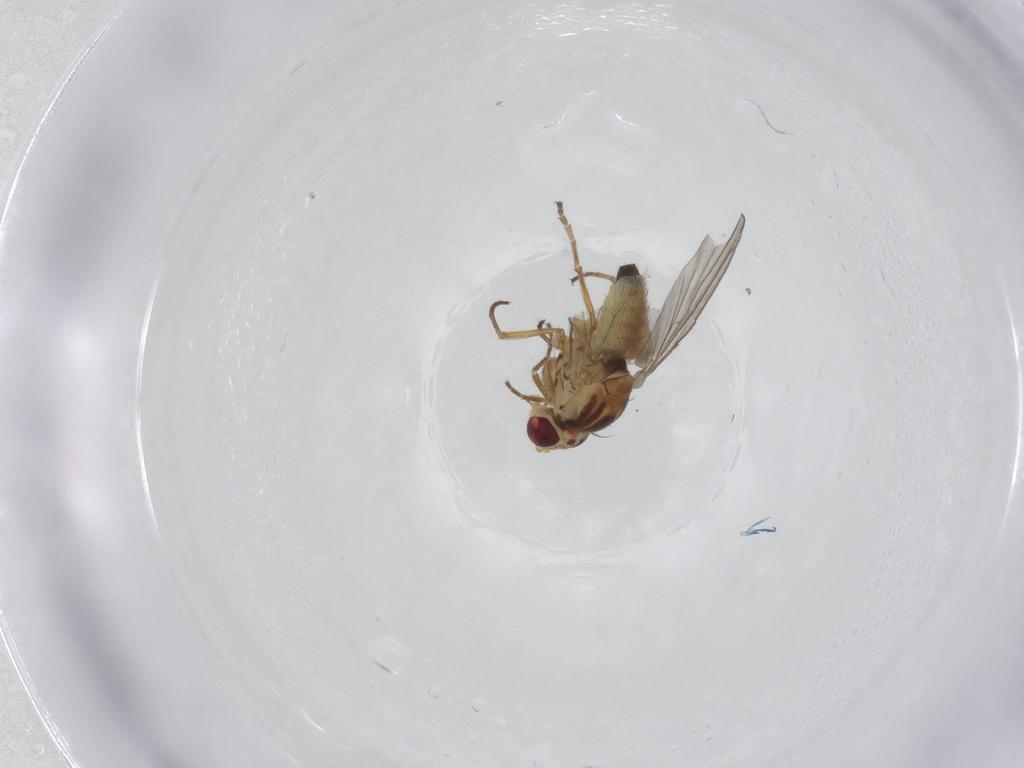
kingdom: Animalia
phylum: Arthropoda
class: Insecta
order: Diptera
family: Agromyzidae
